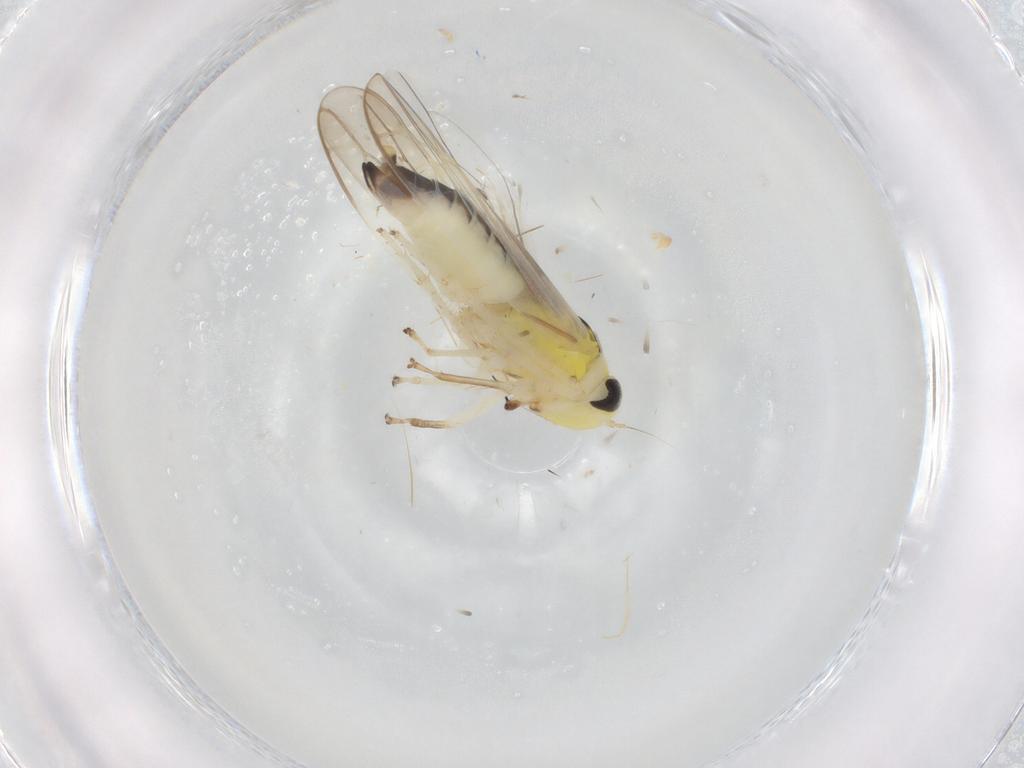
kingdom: Animalia
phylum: Arthropoda
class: Insecta
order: Hemiptera
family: Cicadellidae
